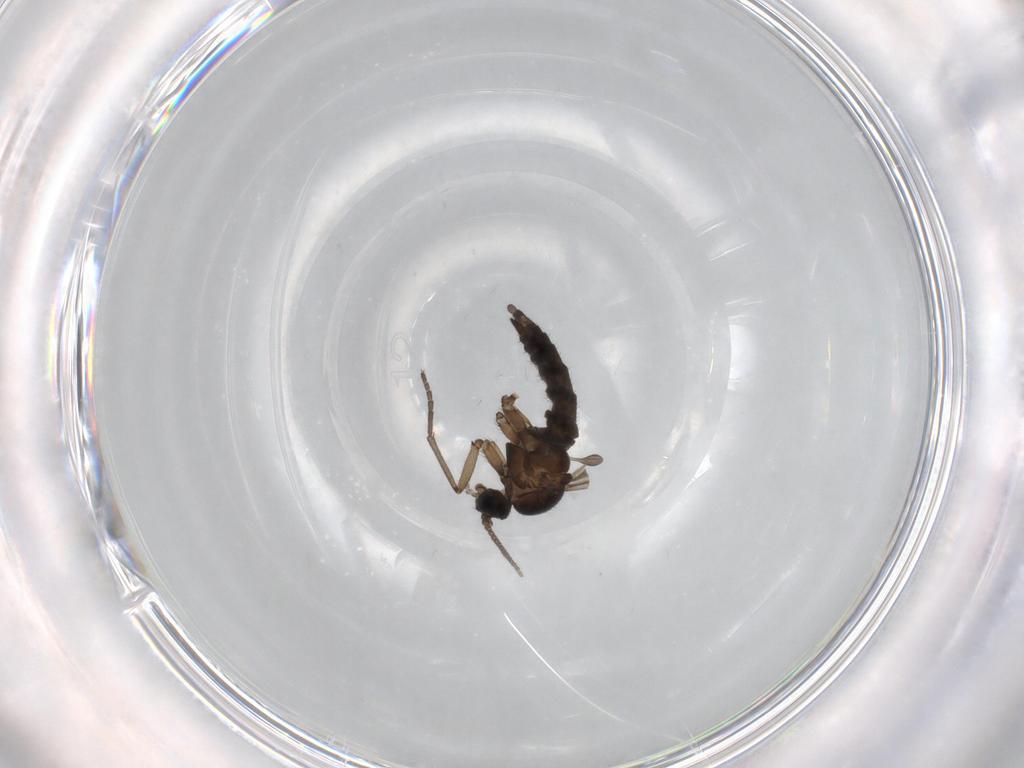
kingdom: Animalia
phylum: Arthropoda
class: Insecta
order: Diptera
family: Sciaridae
